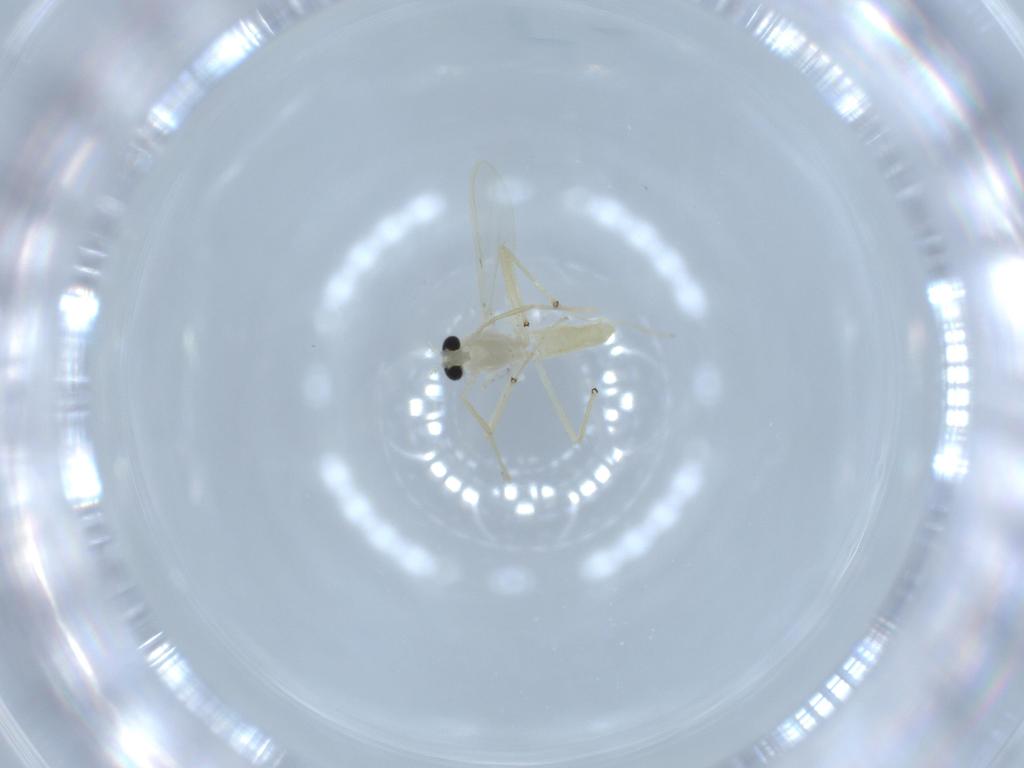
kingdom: Animalia
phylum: Arthropoda
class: Insecta
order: Diptera
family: Chironomidae
